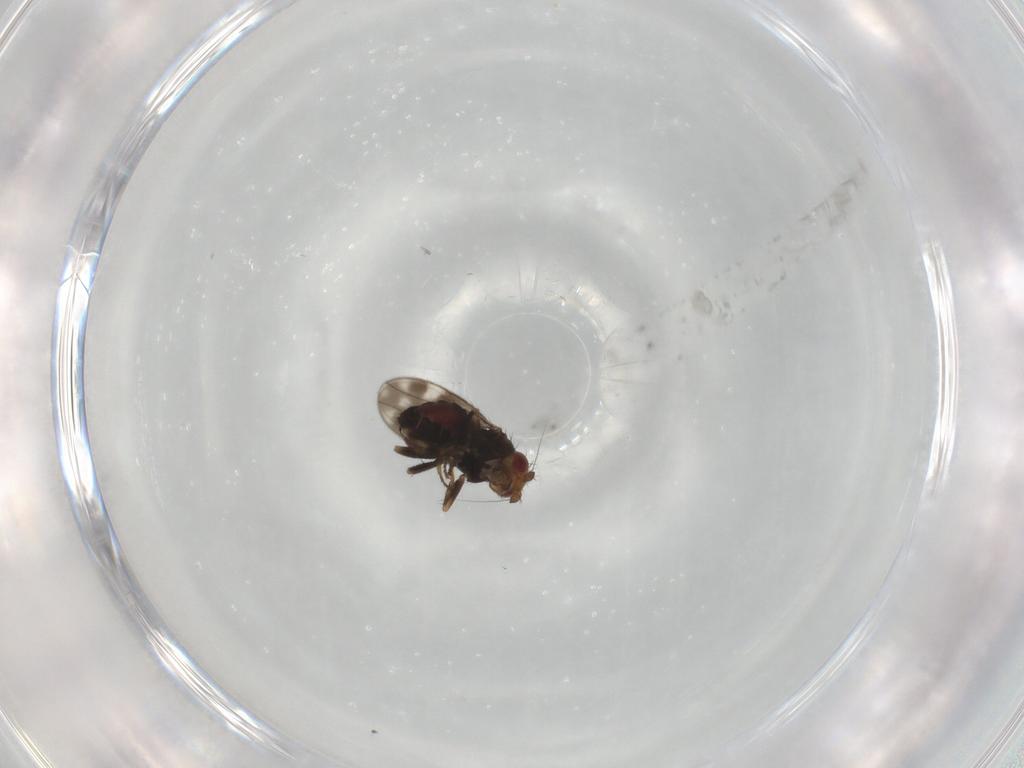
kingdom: Animalia
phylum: Arthropoda
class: Insecta
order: Diptera
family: Sphaeroceridae
